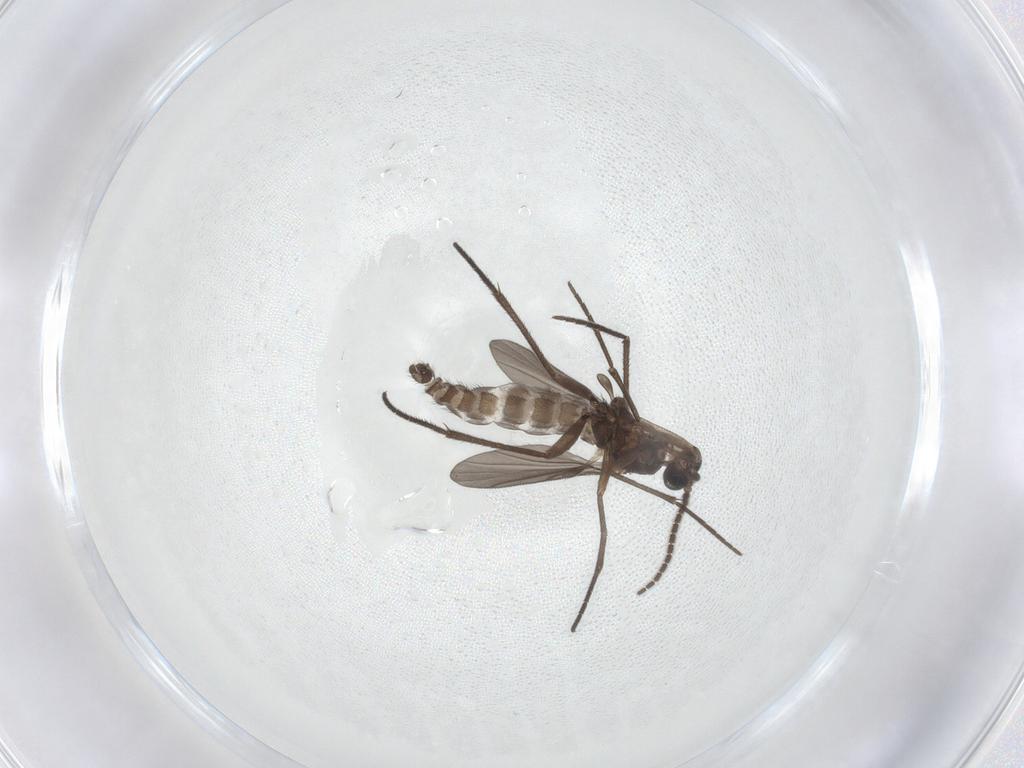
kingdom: Animalia
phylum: Arthropoda
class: Insecta
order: Diptera
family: Sciaridae
